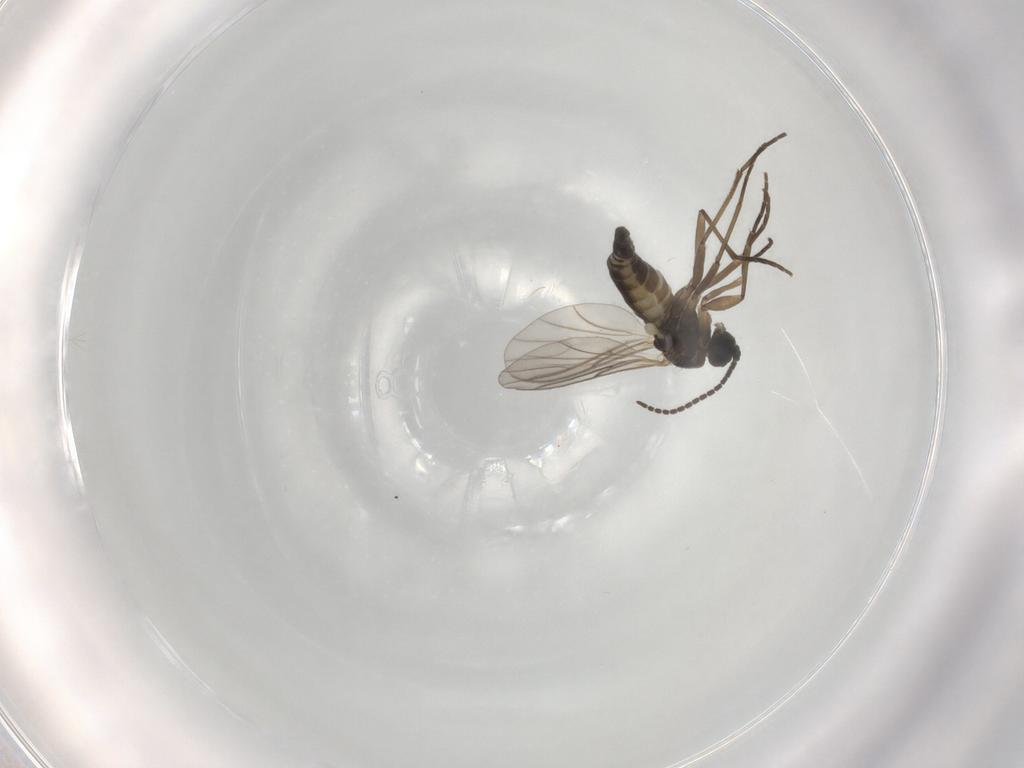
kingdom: Animalia
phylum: Arthropoda
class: Insecta
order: Diptera
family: Sciaridae
